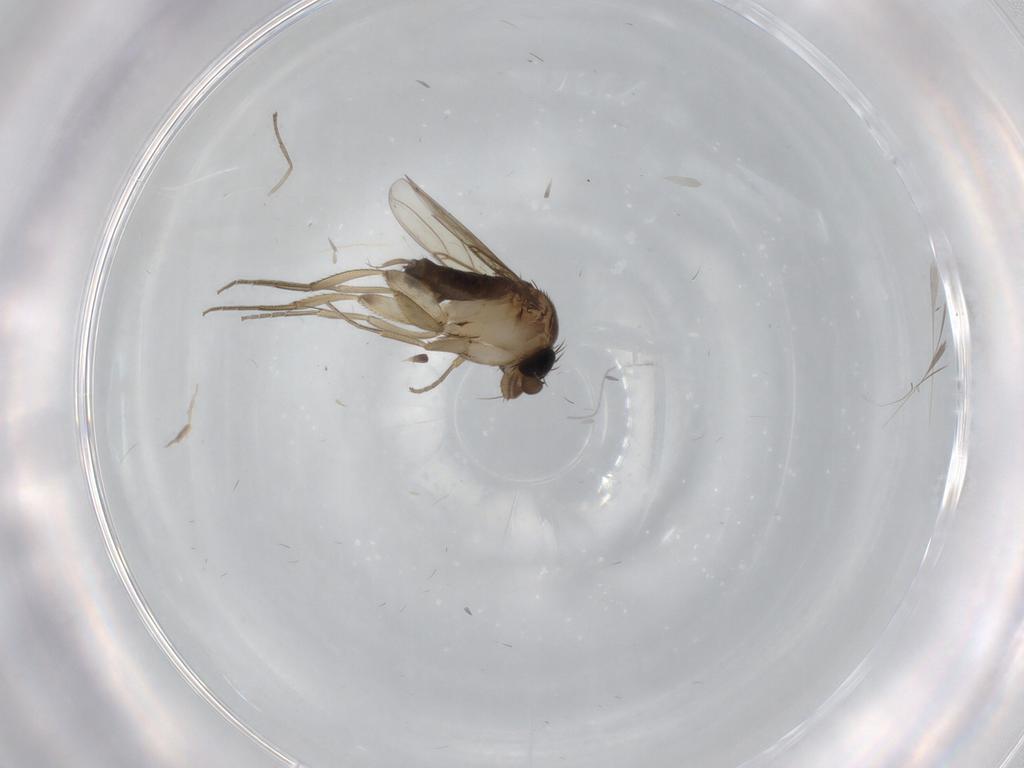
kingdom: Animalia
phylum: Arthropoda
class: Insecta
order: Diptera
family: Phoridae
